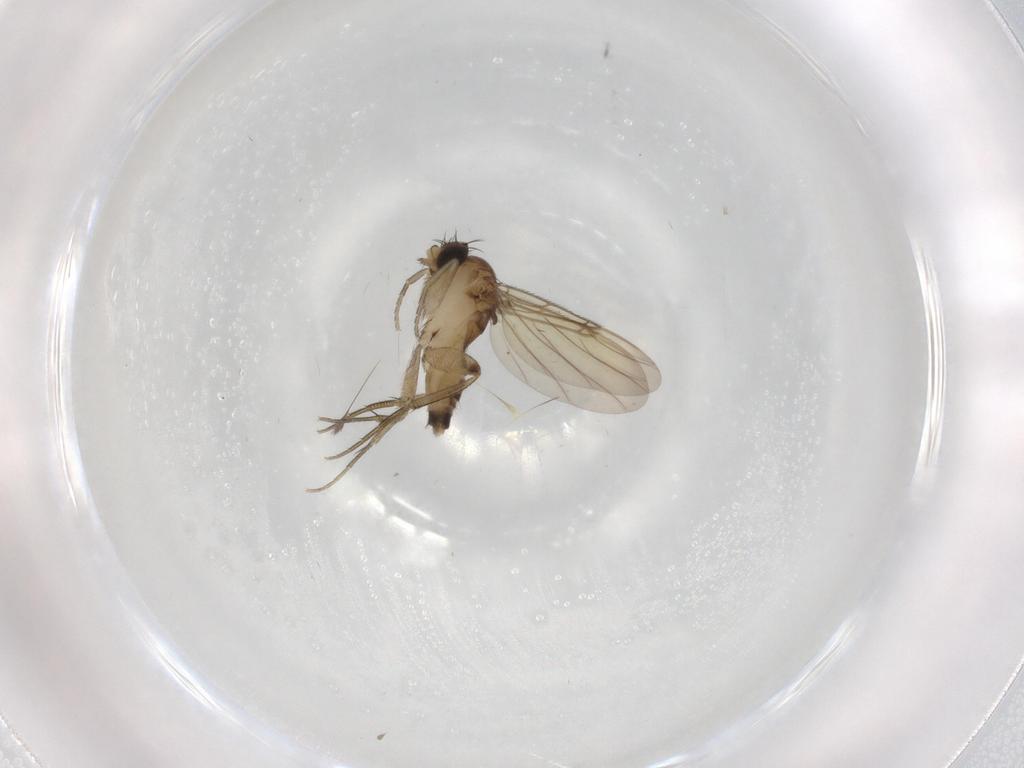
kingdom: Animalia
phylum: Arthropoda
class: Insecta
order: Diptera
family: Phoridae
